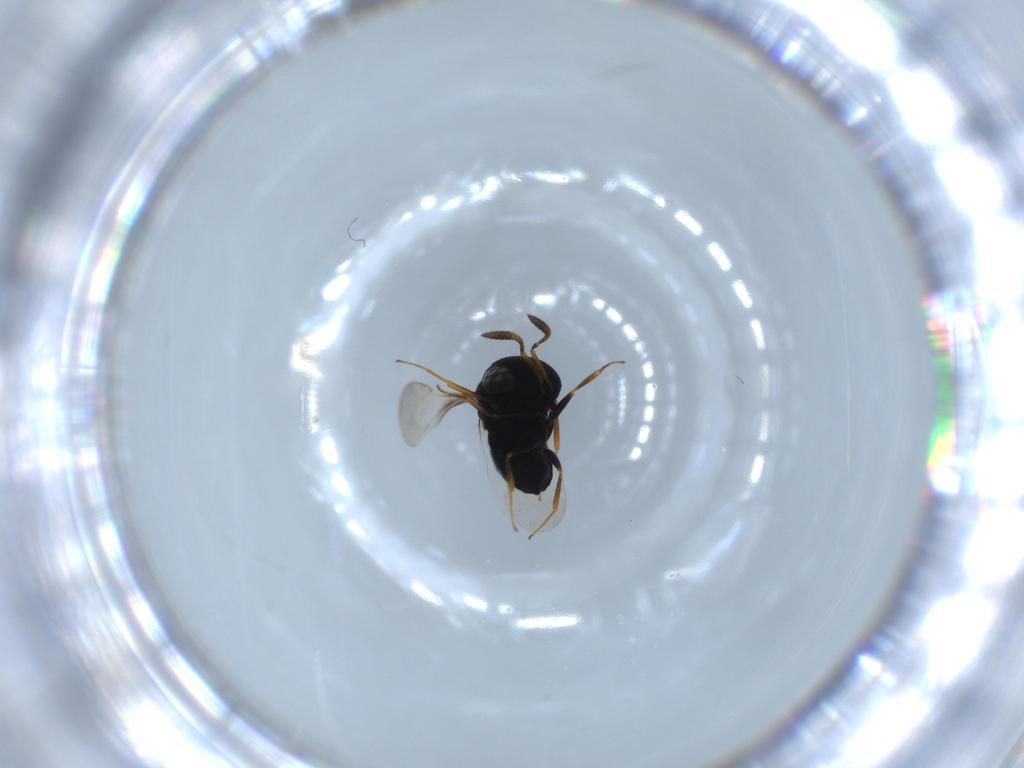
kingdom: Animalia
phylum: Arthropoda
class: Insecta
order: Hymenoptera
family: Scelionidae
